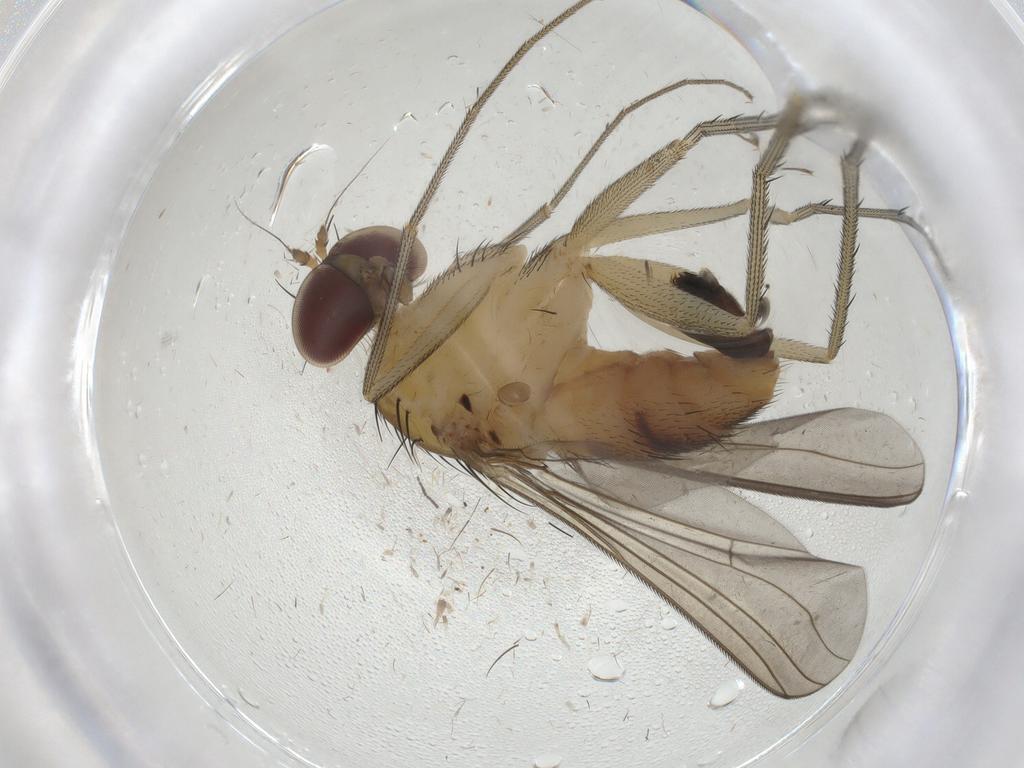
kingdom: Animalia
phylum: Arthropoda
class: Insecta
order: Diptera
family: Dolichopodidae
